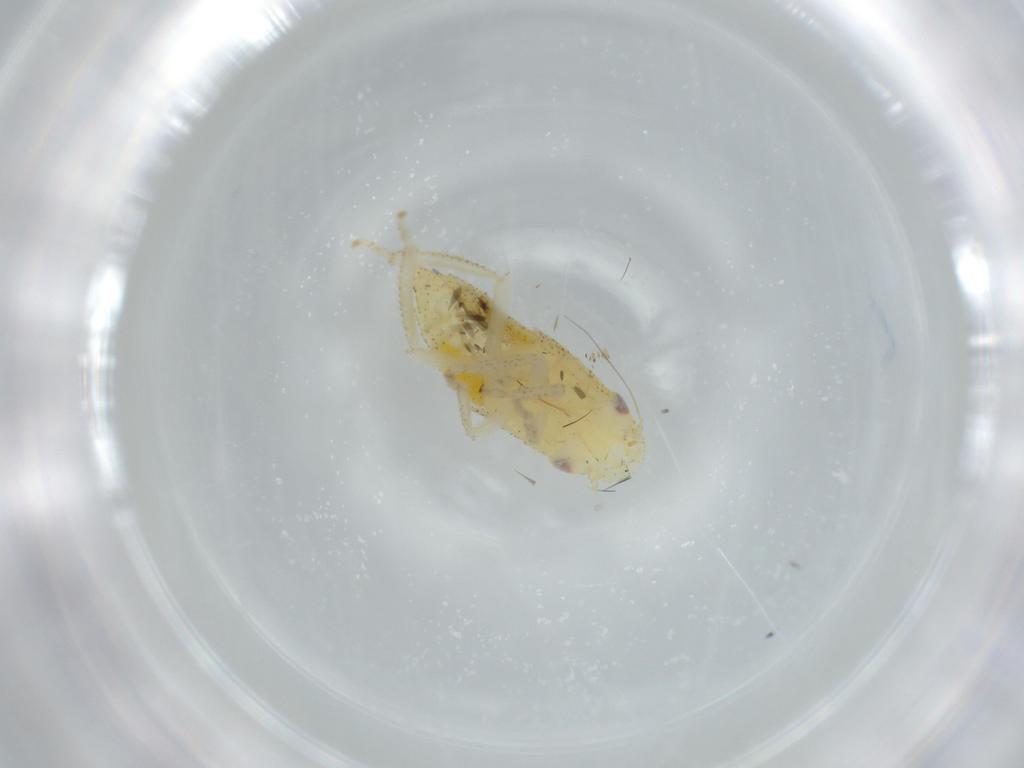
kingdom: Animalia
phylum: Arthropoda
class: Insecta
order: Hemiptera
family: Cicadellidae
